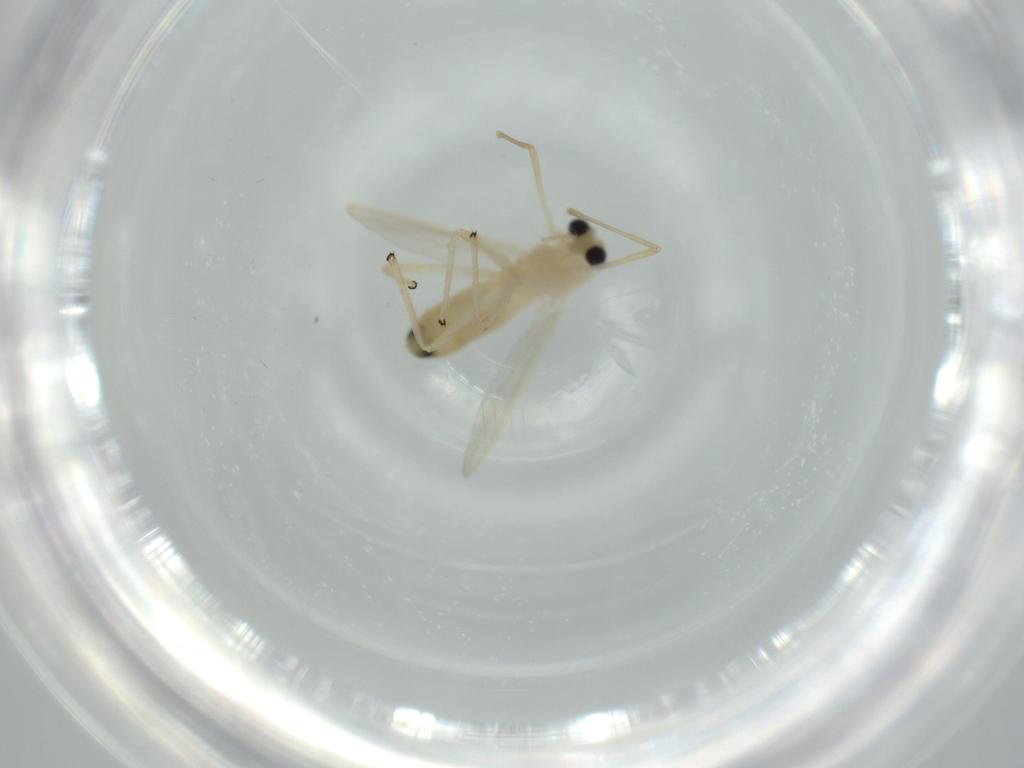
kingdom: Animalia
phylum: Arthropoda
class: Insecta
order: Diptera
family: Chironomidae
